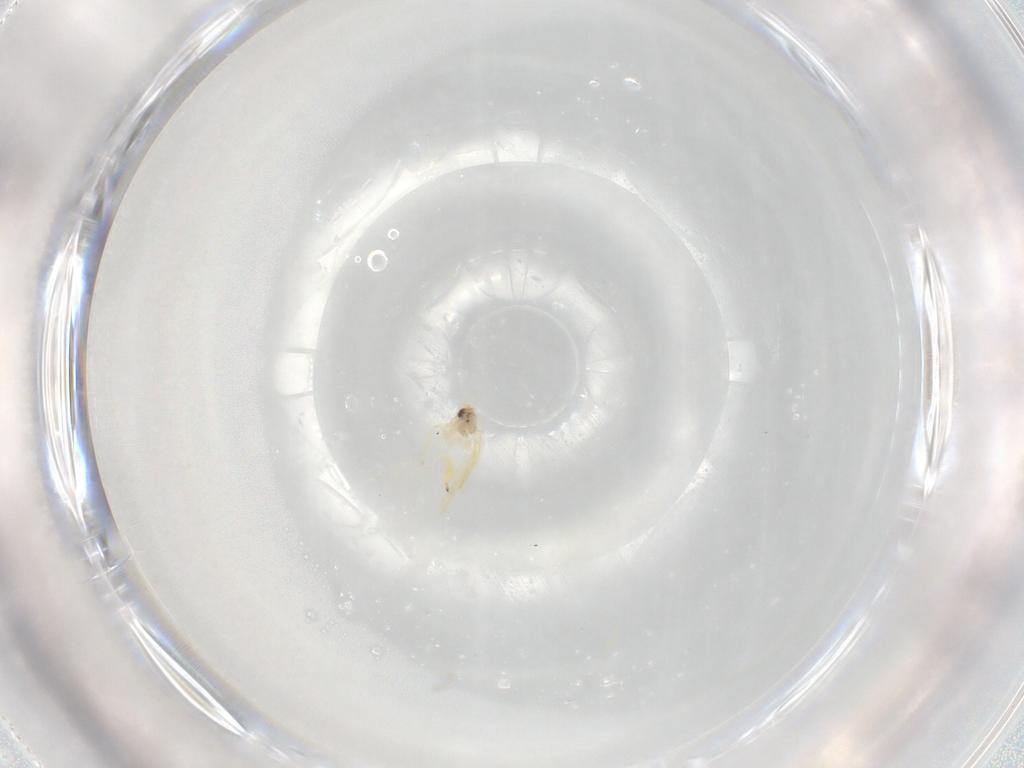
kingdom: Animalia
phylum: Arthropoda
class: Insecta
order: Hemiptera
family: Aleyrodidae
